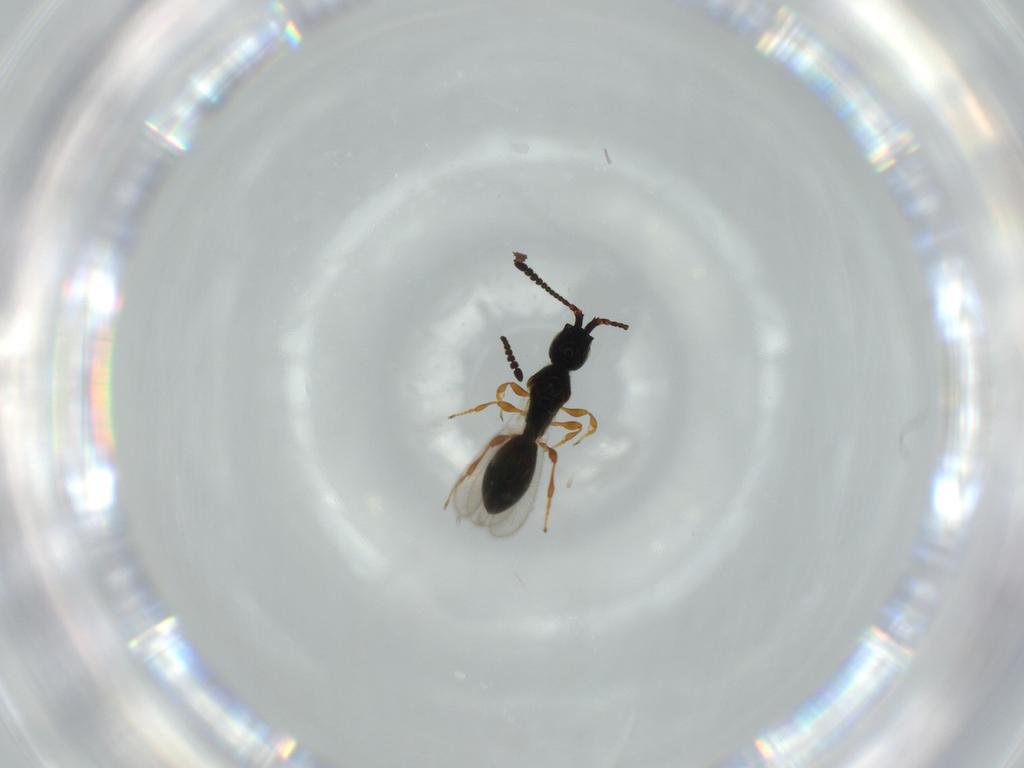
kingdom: Animalia
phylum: Arthropoda
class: Insecta
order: Hymenoptera
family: Diapriidae
